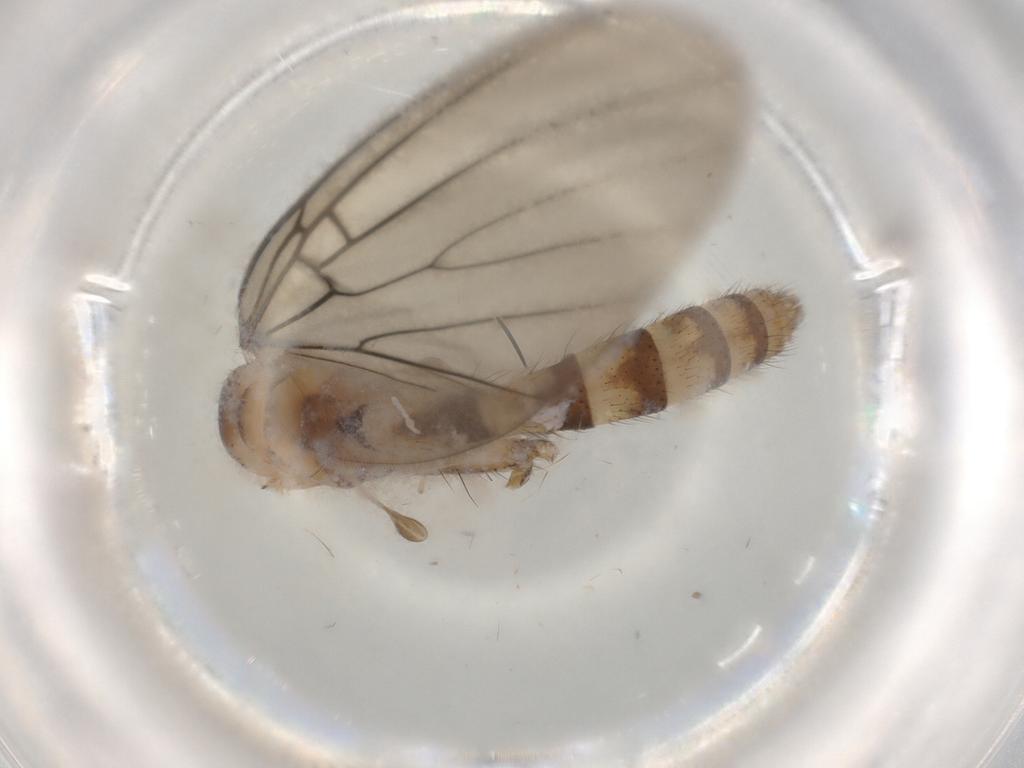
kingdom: Animalia
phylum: Arthropoda
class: Insecta
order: Diptera
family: Mycetophilidae
